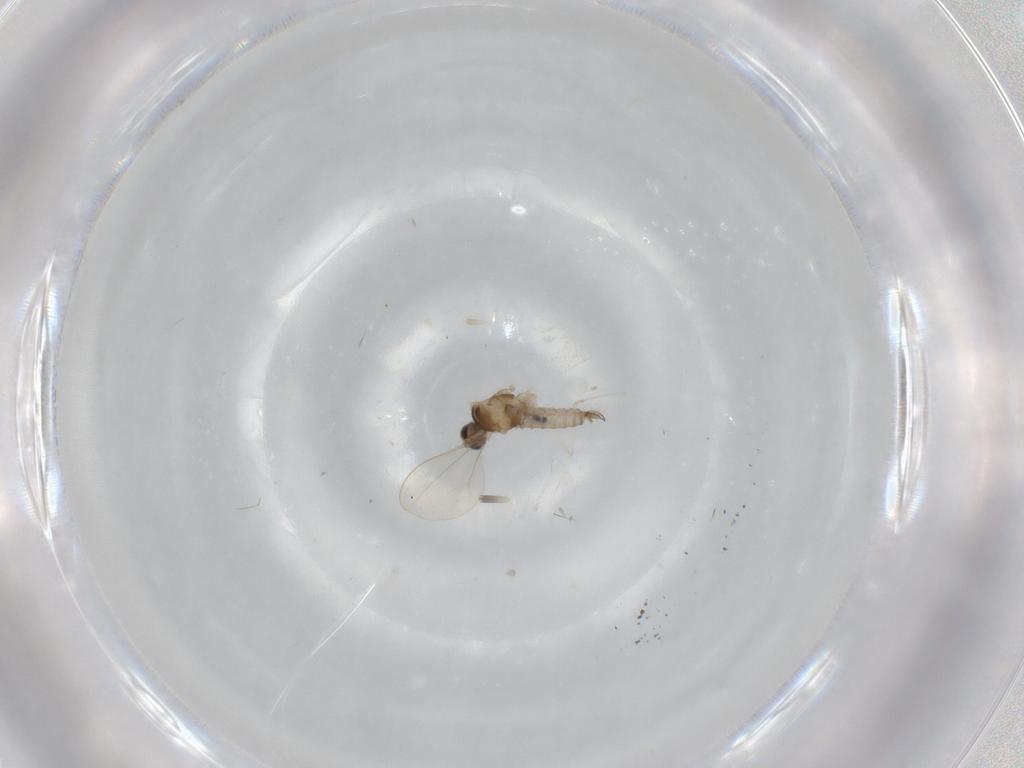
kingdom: Animalia
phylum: Arthropoda
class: Insecta
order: Diptera
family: Cecidomyiidae
